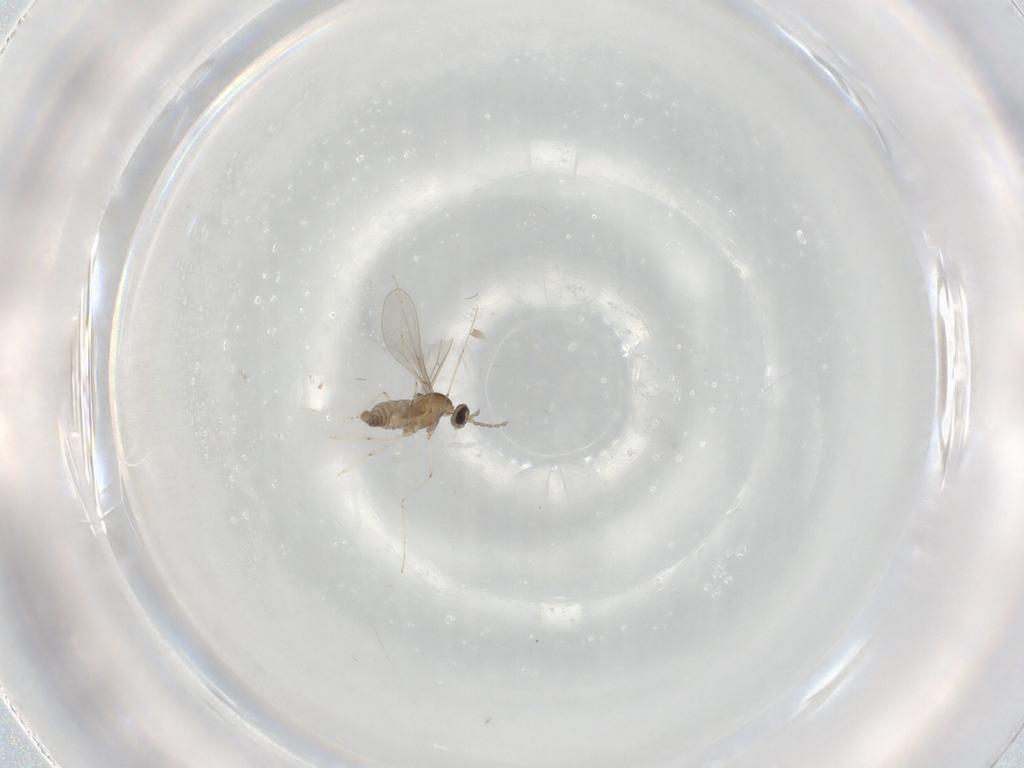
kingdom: Animalia
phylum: Arthropoda
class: Insecta
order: Diptera
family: Cecidomyiidae
